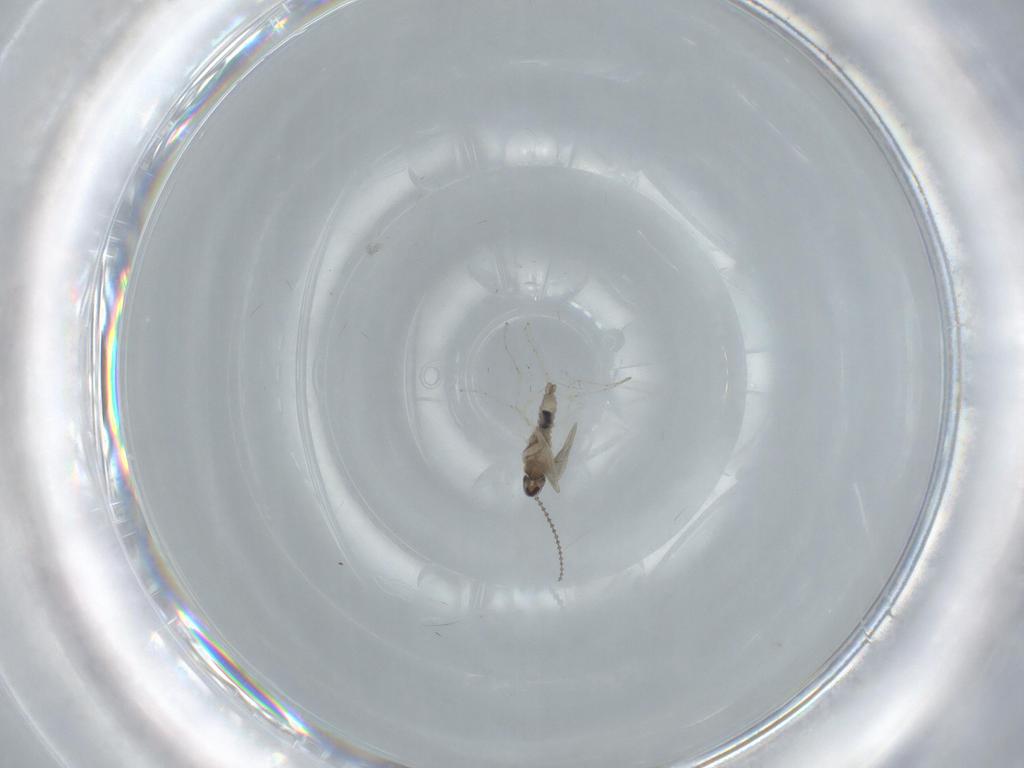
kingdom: Animalia
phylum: Arthropoda
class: Insecta
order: Diptera
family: Cecidomyiidae
